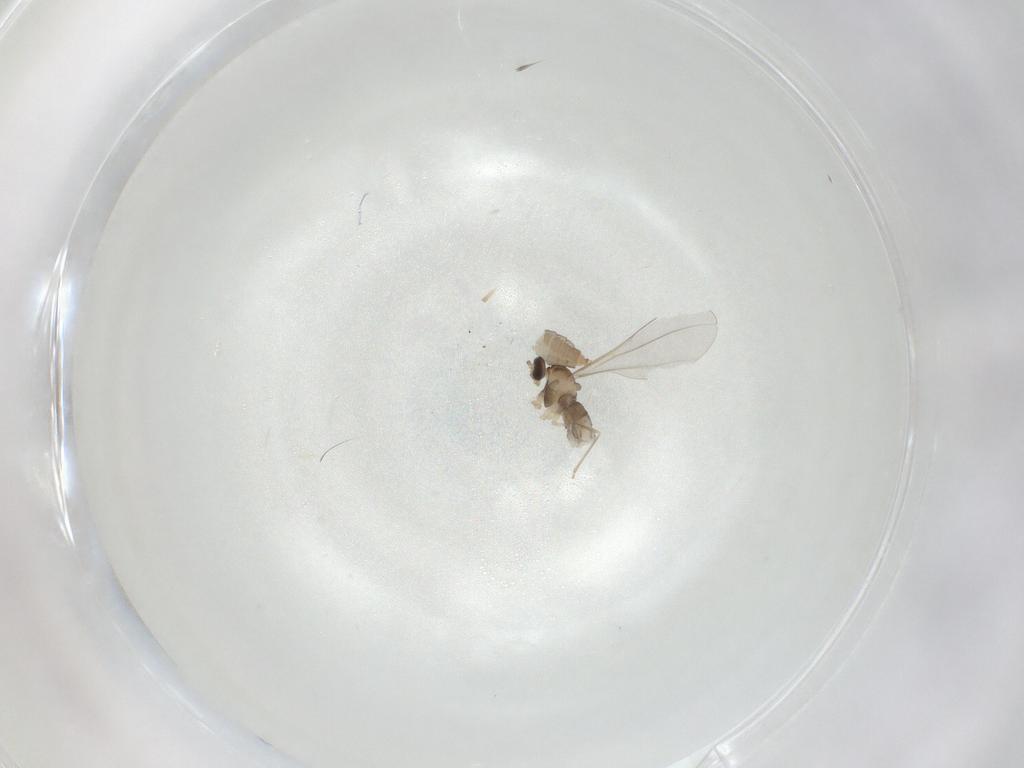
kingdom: Animalia
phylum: Arthropoda
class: Insecta
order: Diptera
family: Cecidomyiidae
